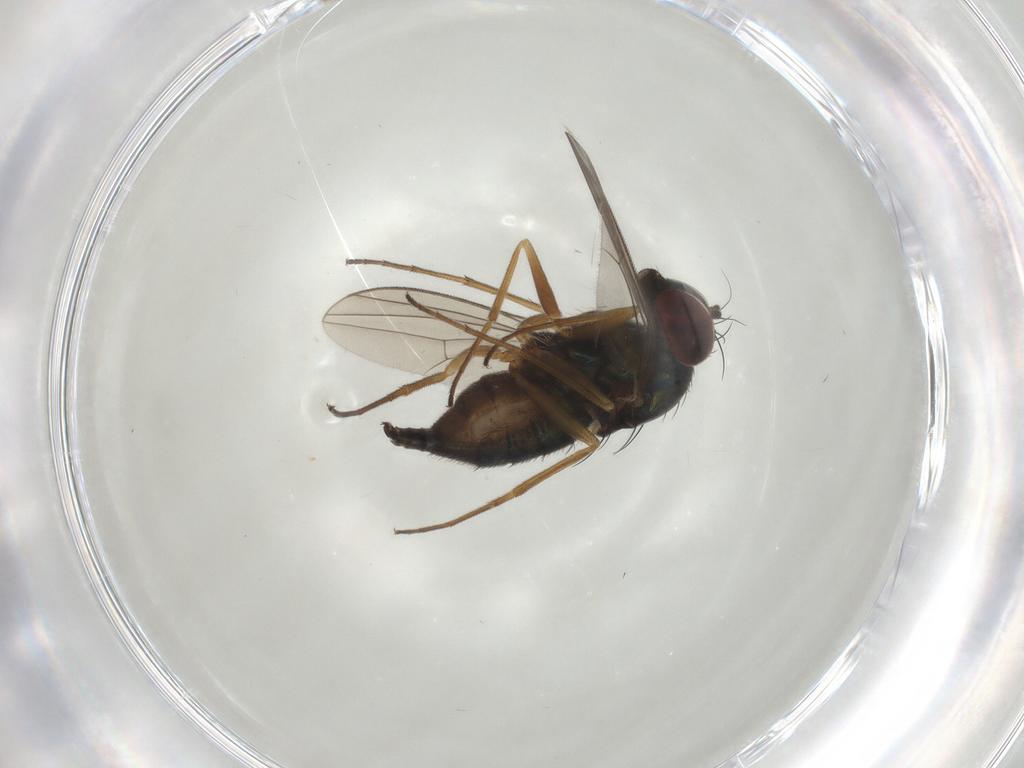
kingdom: Animalia
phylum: Arthropoda
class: Insecta
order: Diptera
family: Dolichopodidae
